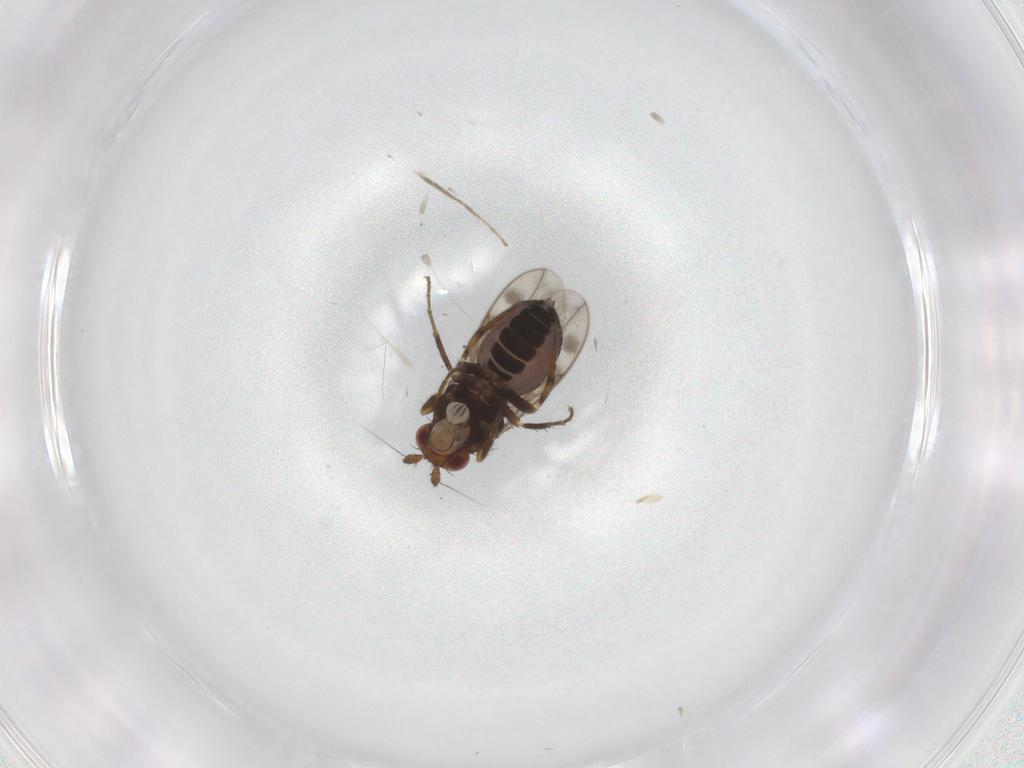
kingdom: Animalia
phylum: Arthropoda
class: Insecta
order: Diptera
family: Sphaeroceridae
